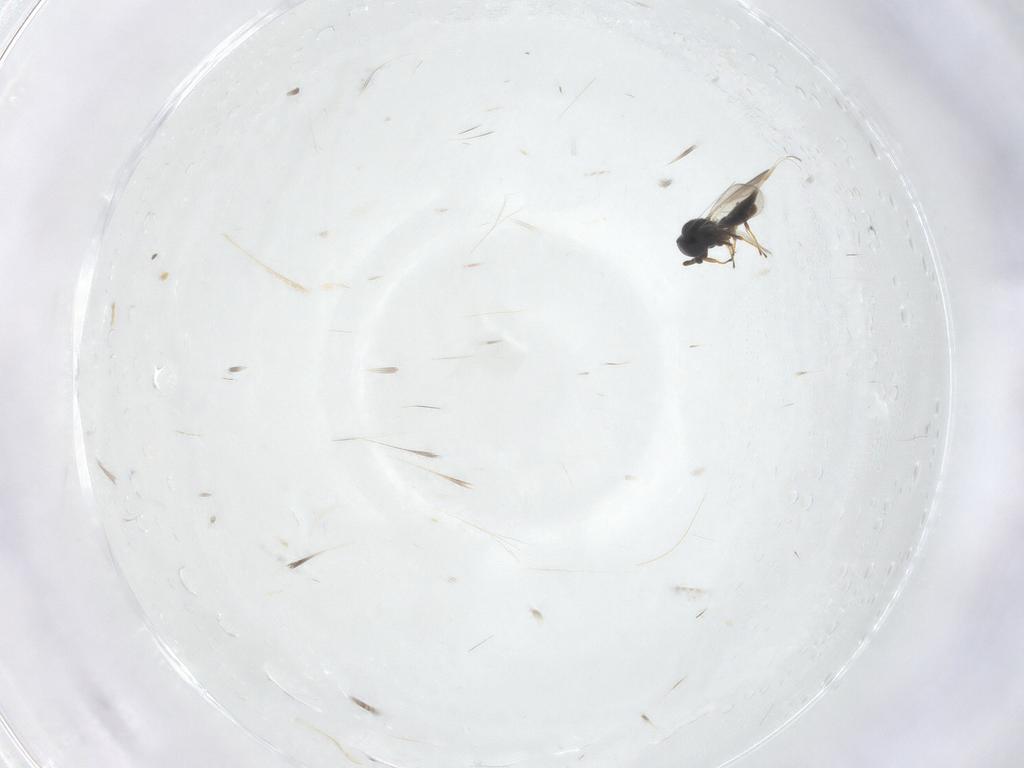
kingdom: Animalia
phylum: Arthropoda
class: Insecta
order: Hymenoptera
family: Platygastridae
